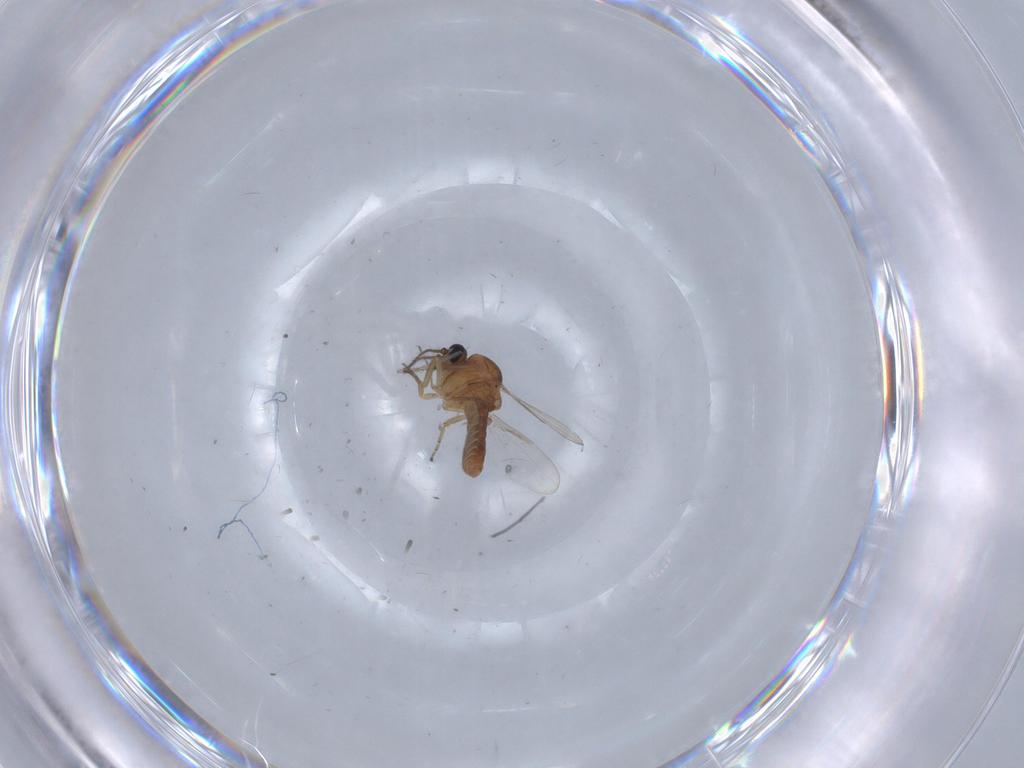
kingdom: Animalia
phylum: Arthropoda
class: Insecta
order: Diptera
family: Ceratopogonidae
